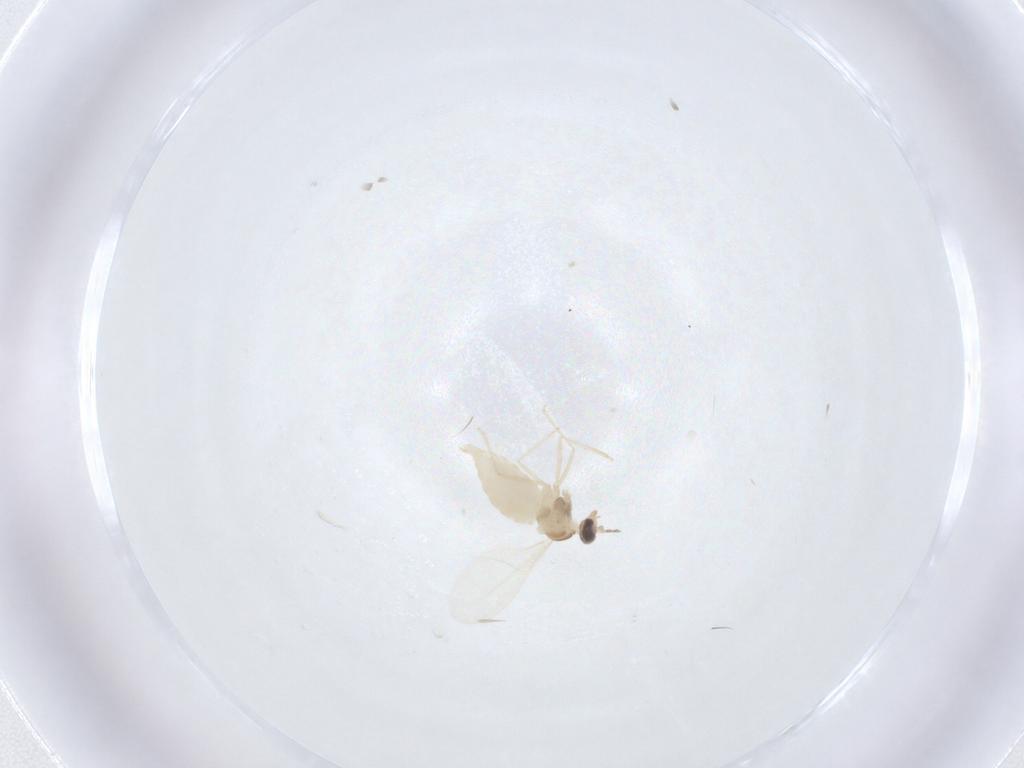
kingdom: Animalia
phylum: Arthropoda
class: Insecta
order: Diptera
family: Cecidomyiidae
